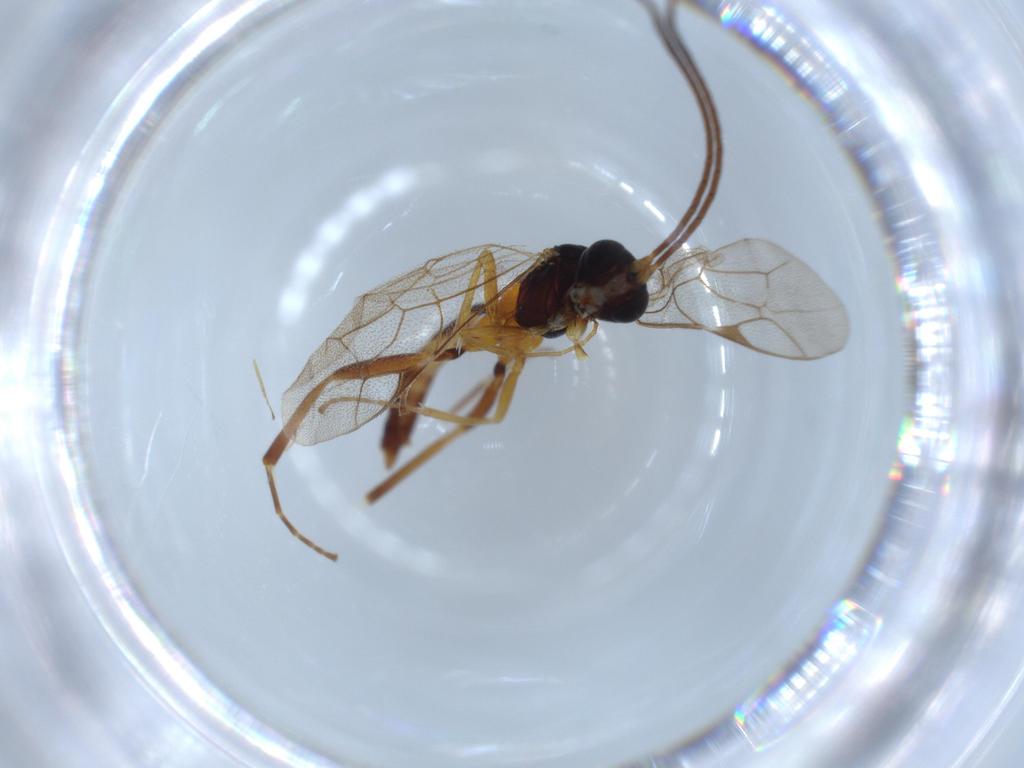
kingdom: Animalia
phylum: Arthropoda
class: Insecta
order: Hymenoptera
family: Ichneumonidae
